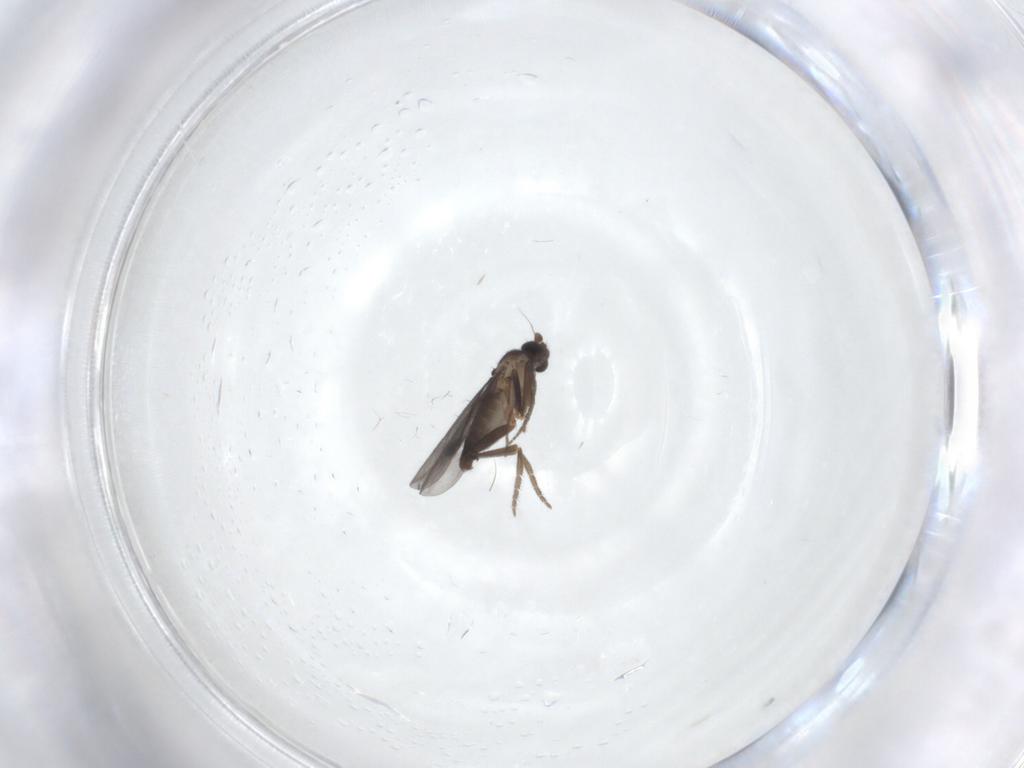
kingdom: Animalia
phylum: Arthropoda
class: Insecta
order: Diptera
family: Phoridae
